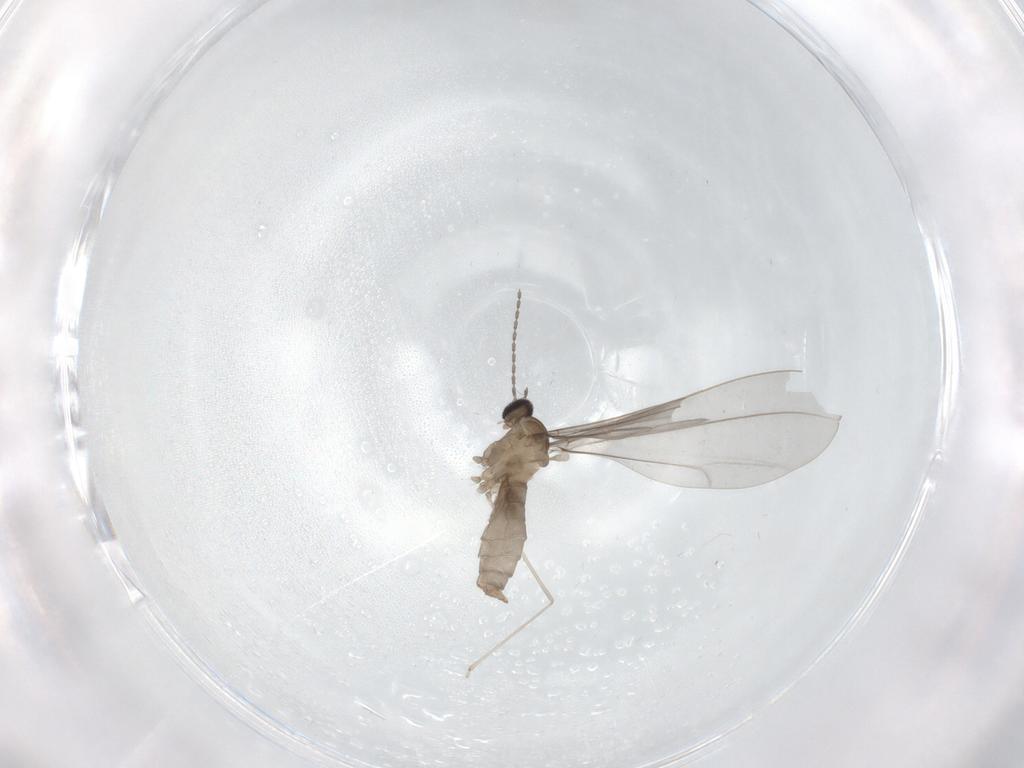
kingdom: Animalia
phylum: Arthropoda
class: Insecta
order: Diptera
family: Cecidomyiidae
